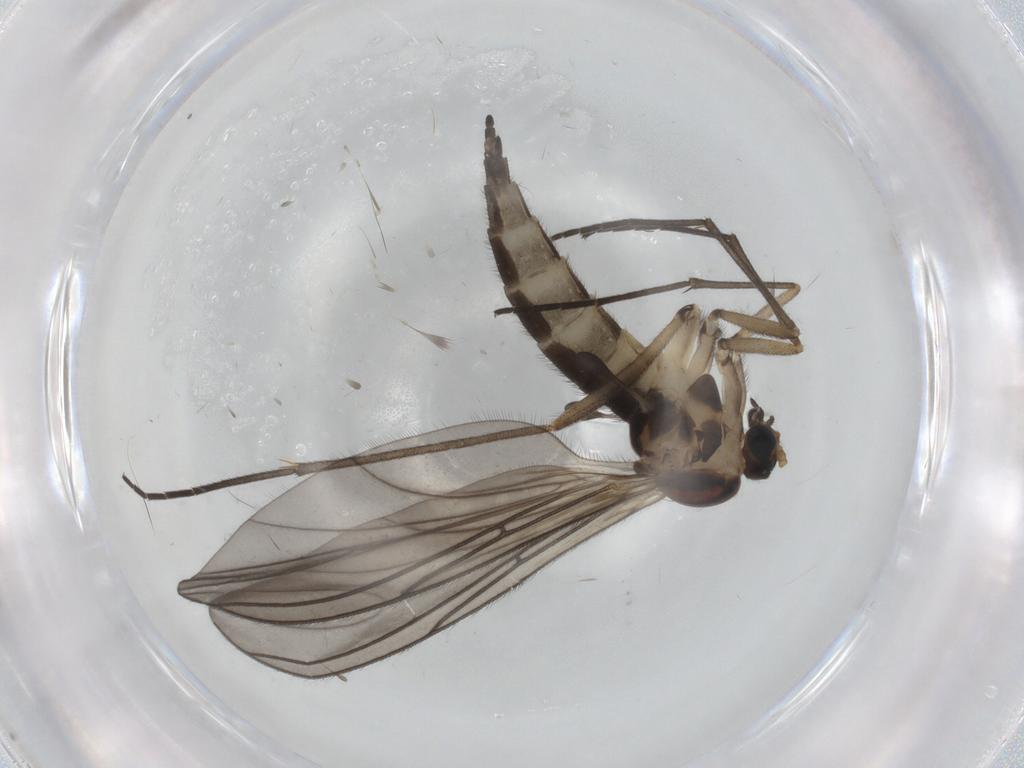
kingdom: Animalia
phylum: Arthropoda
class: Insecta
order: Diptera
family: Sciaridae
